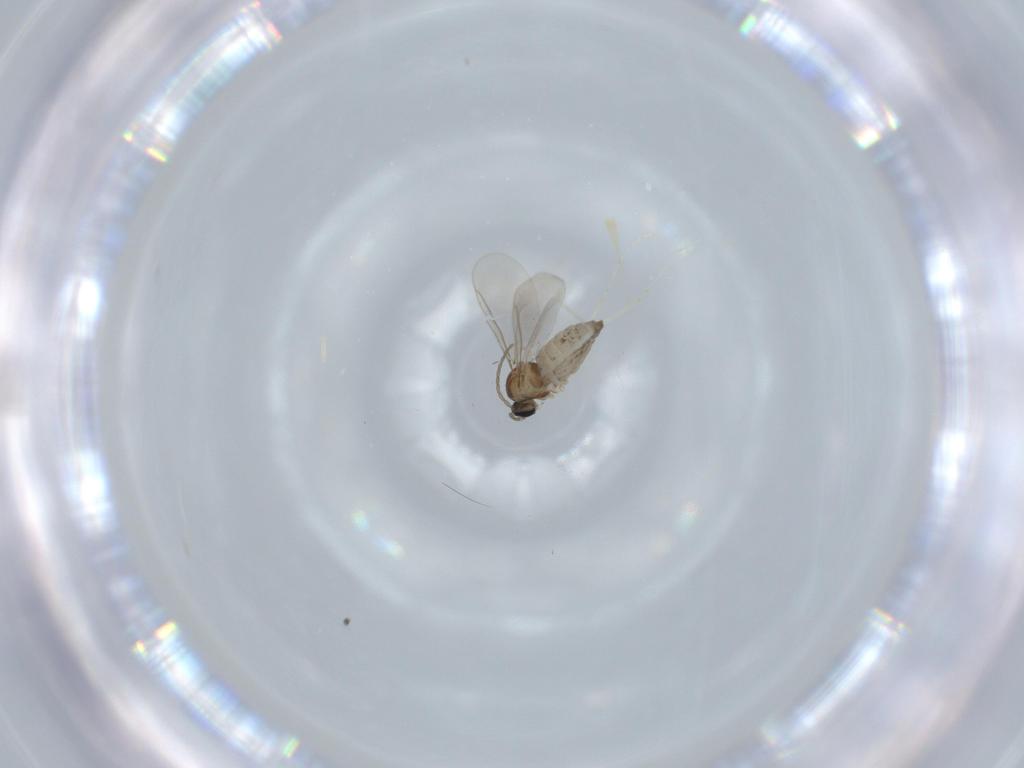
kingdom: Animalia
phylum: Arthropoda
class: Insecta
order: Diptera
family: Cecidomyiidae
